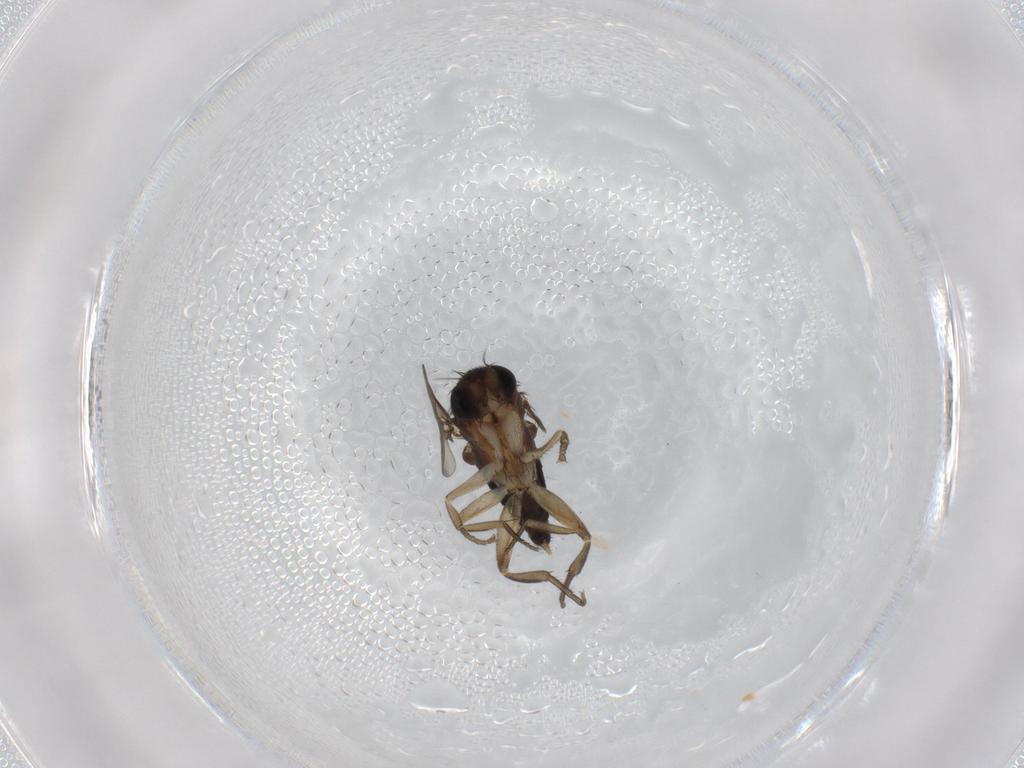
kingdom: Animalia
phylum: Arthropoda
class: Insecta
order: Diptera
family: Phoridae
